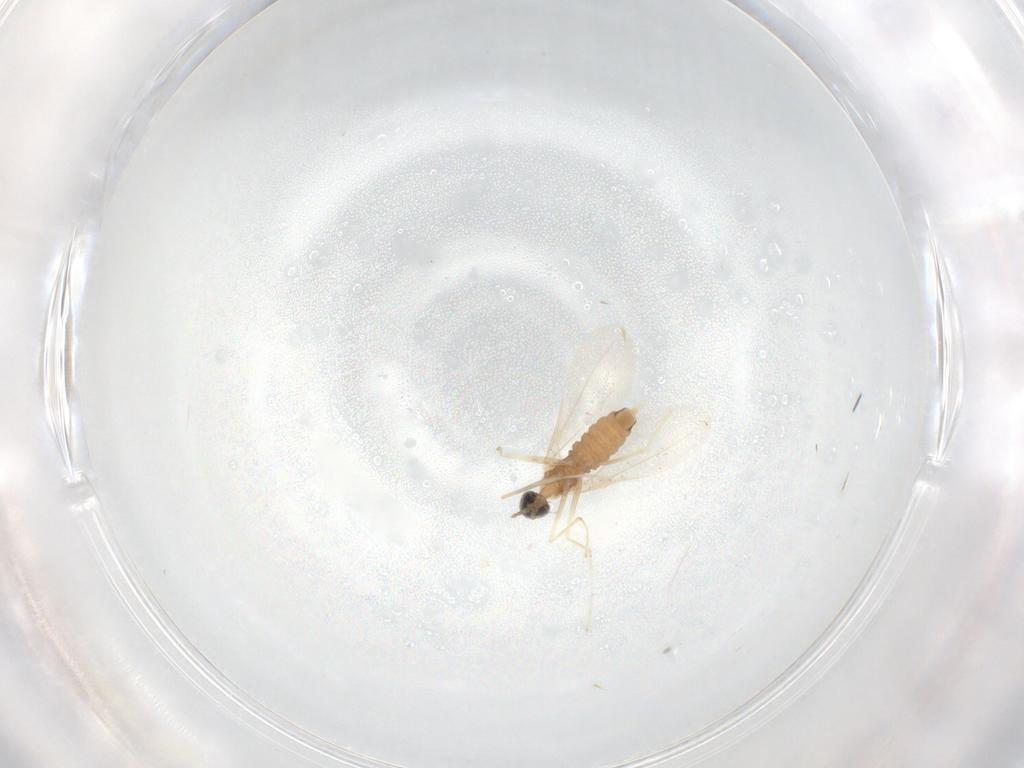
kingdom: Animalia
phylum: Arthropoda
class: Insecta
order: Diptera
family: Cecidomyiidae
